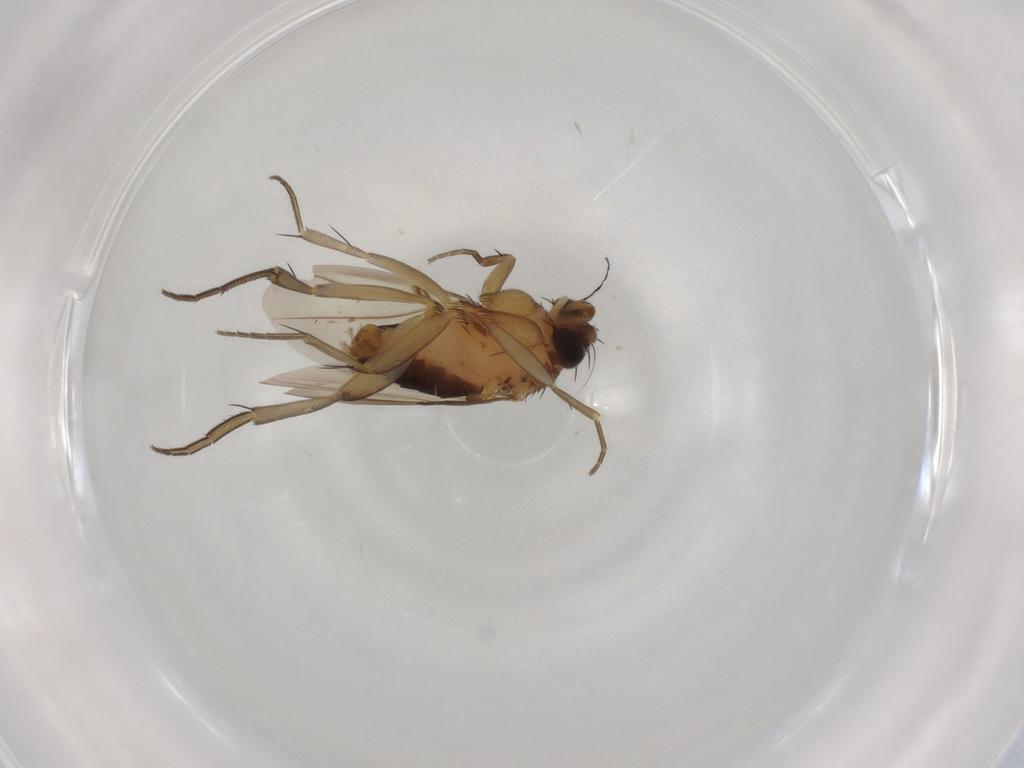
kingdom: Animalia
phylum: Arthropoda
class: Insecta
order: Diptera
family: Phoridae
